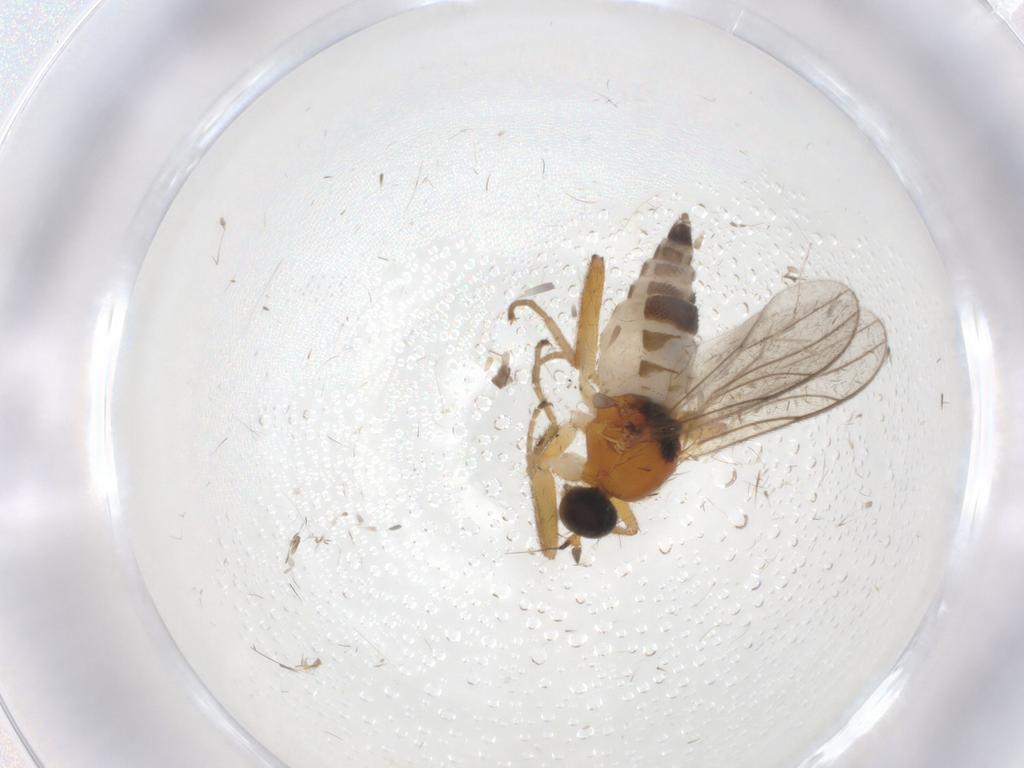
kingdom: Animalia
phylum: Arthropoda
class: Insecta
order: Diptera
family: Hybotidae
